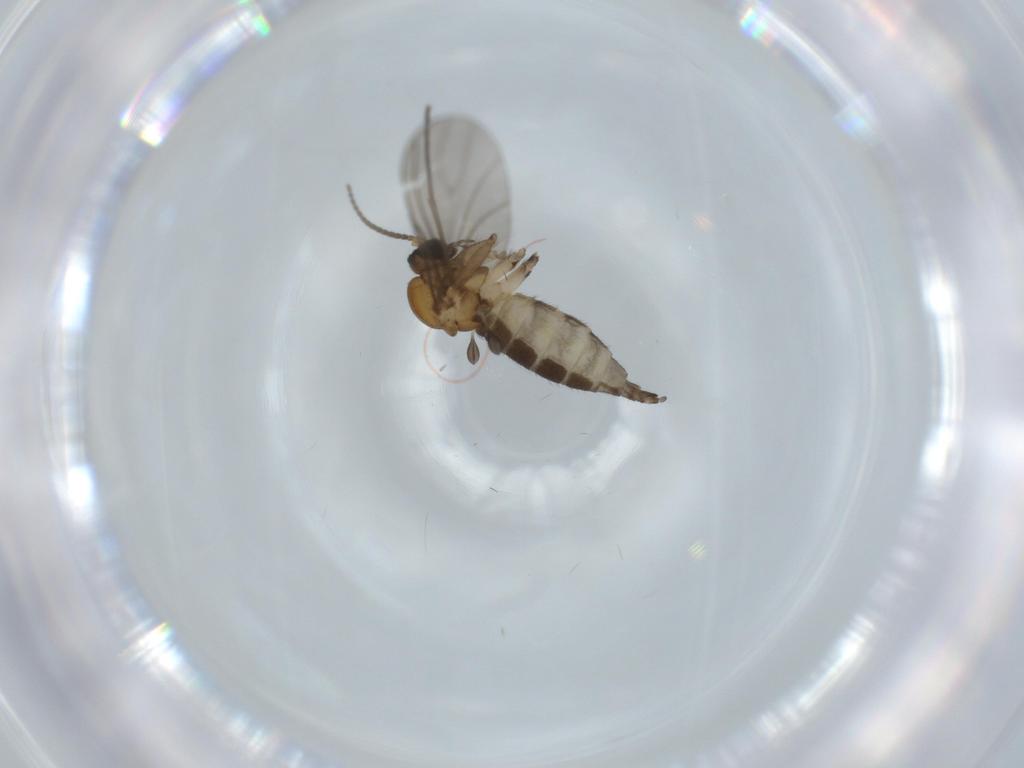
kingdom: Animalia
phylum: Arthropoda
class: Insecta
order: Diptera
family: Sciaridae
